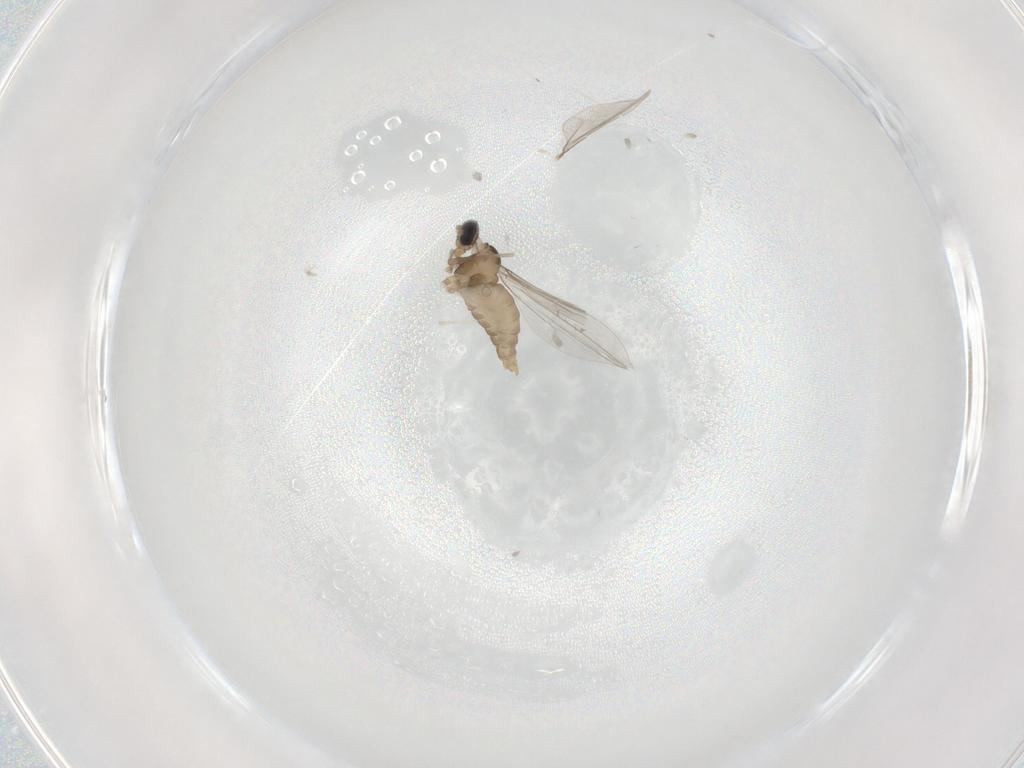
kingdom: Animalia
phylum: Arthropoda
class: Insecta
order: Diptera
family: Cecidomyiidae
